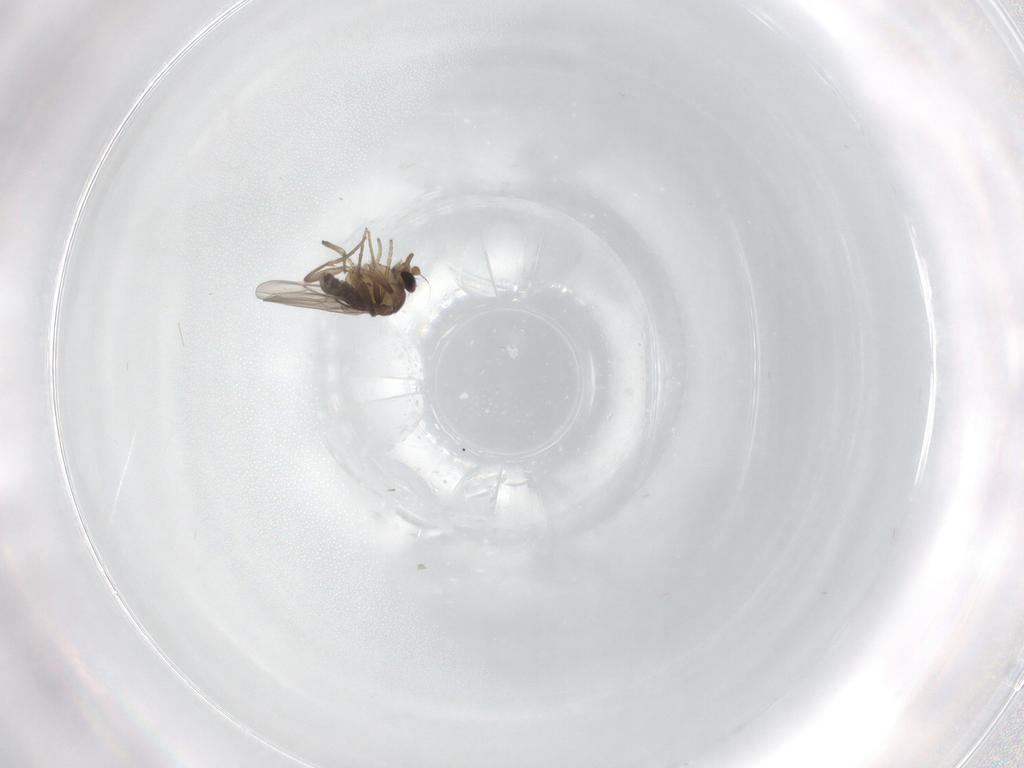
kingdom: Animalia
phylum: Arthropoda
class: Insecta
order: Diptera
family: Phoridae
